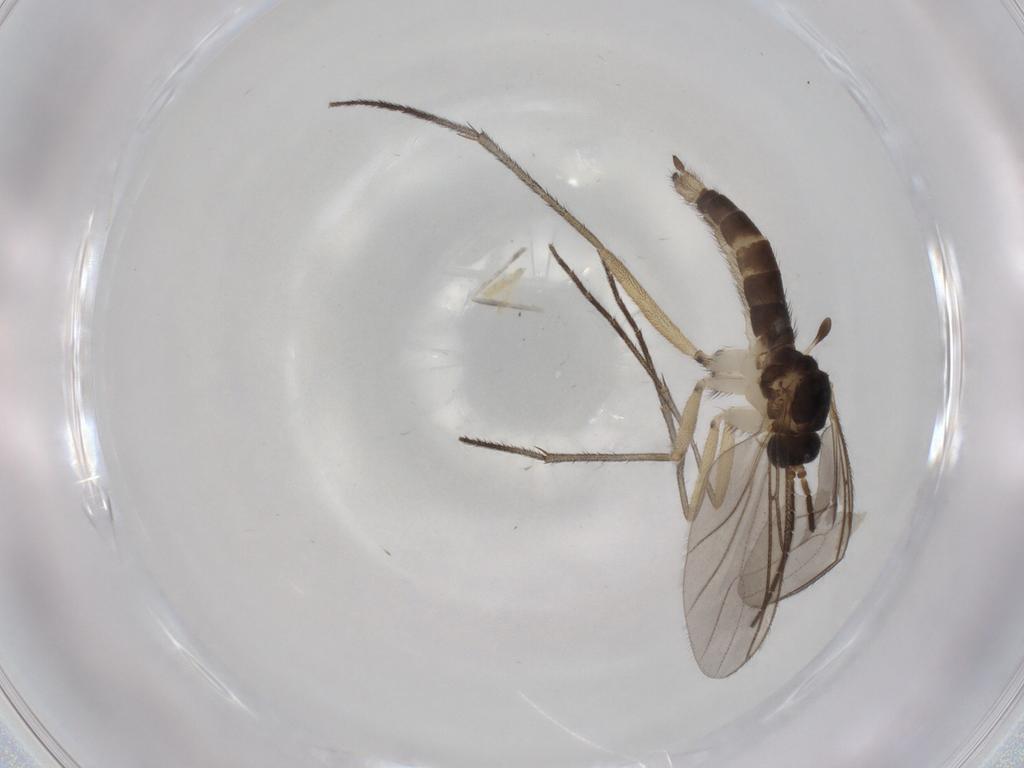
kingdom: Animalia
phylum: Arthropoda
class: Insecta
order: Diptera
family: Sciaridae
